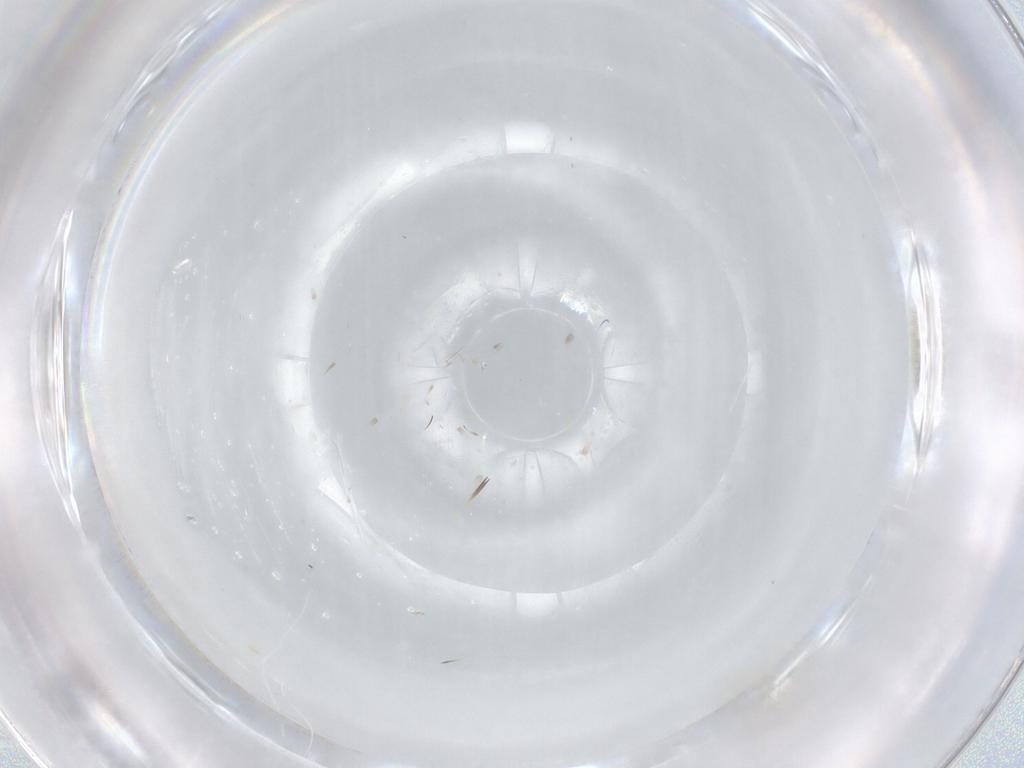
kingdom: Animalia
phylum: Arthropoda
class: Insecta
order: Diptera
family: Cecidomyiidae
